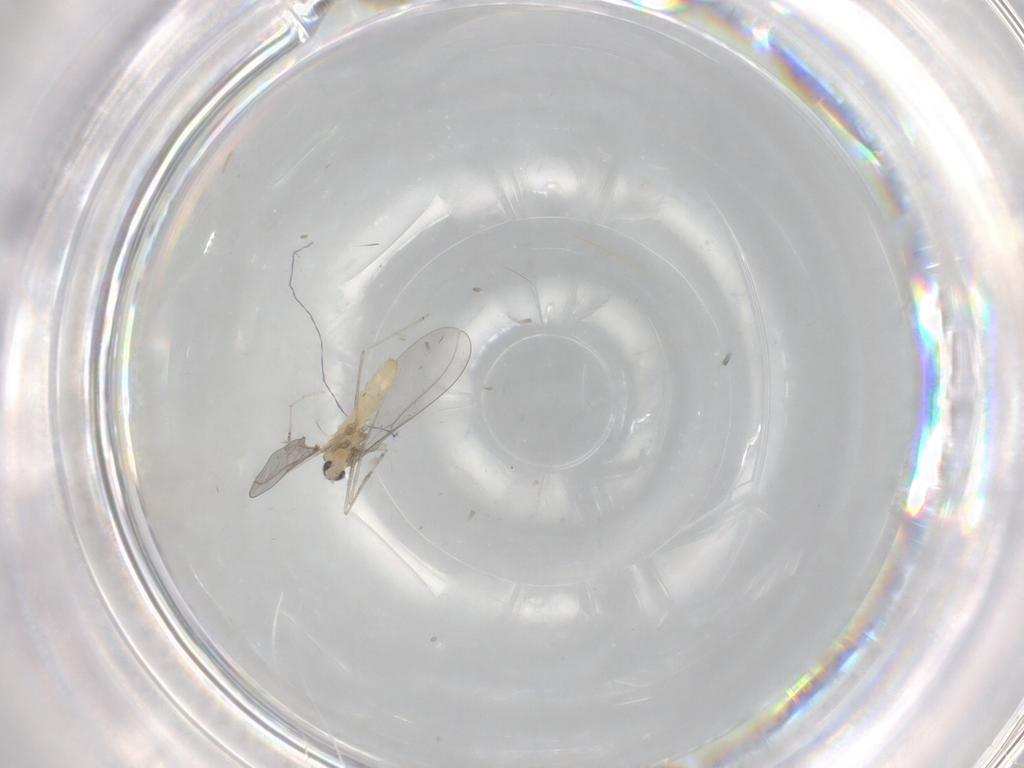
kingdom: Animalia
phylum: Arthropoda
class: Insecta
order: Diptera
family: Cecidomyiidae
